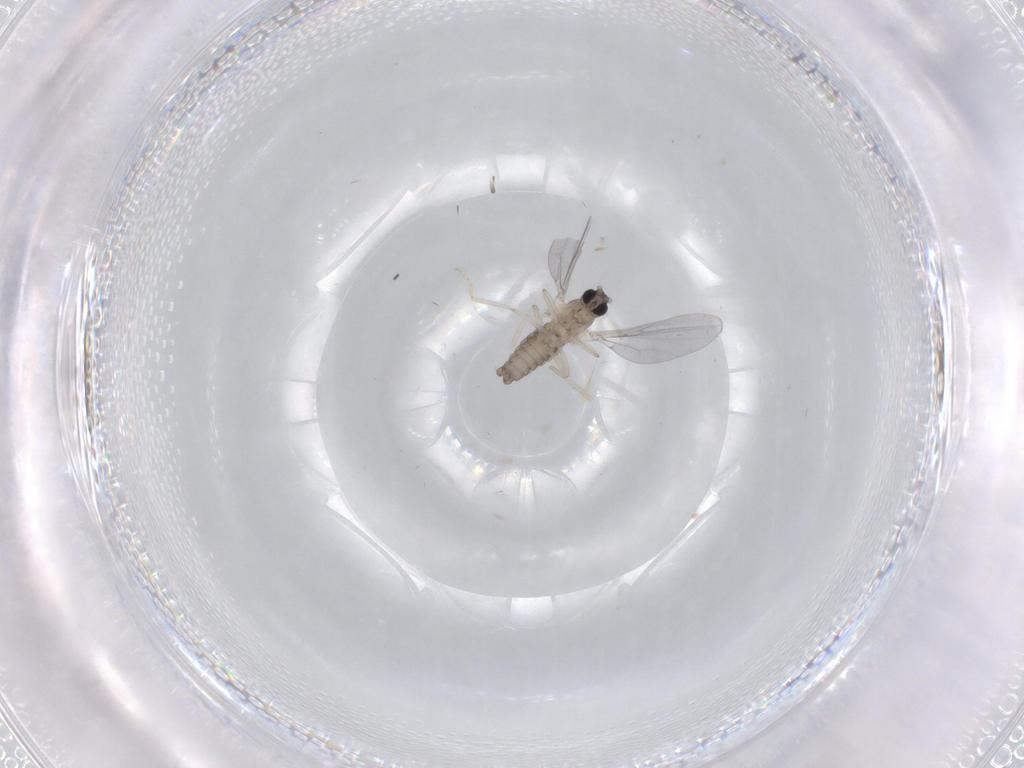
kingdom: Animalia
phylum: Arthropoda
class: Insecta
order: Diptera
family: Cecidomyiidae
